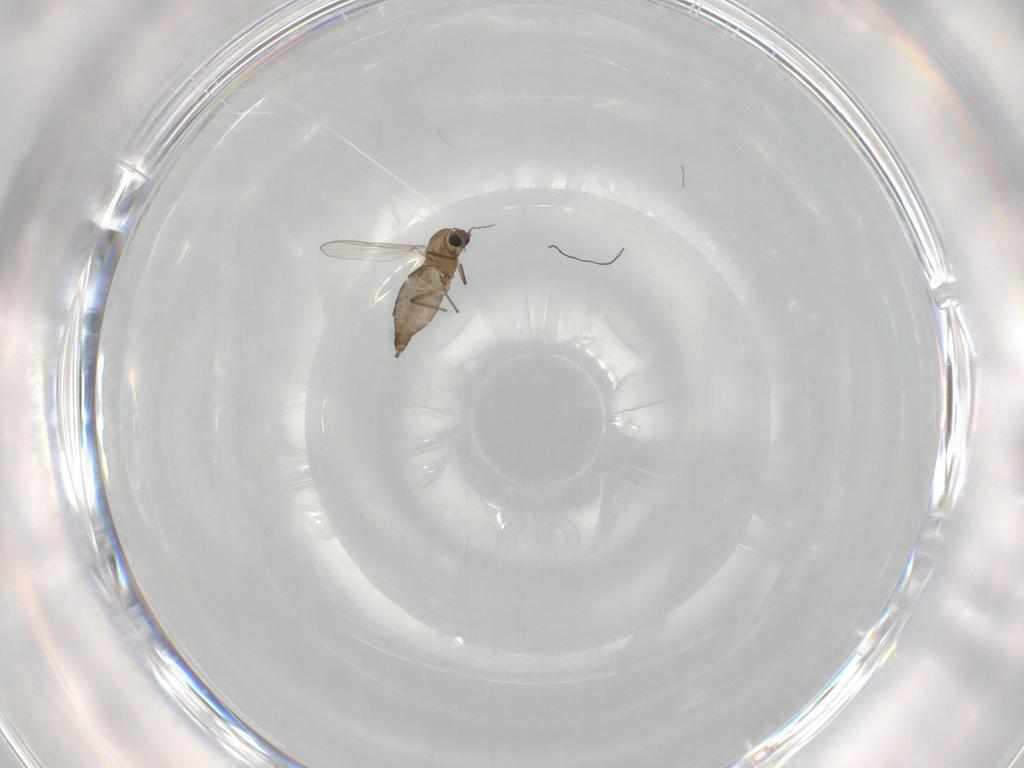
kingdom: Animalia
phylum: Arthropoda
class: Insecta
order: Diptera
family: Chironomidae
